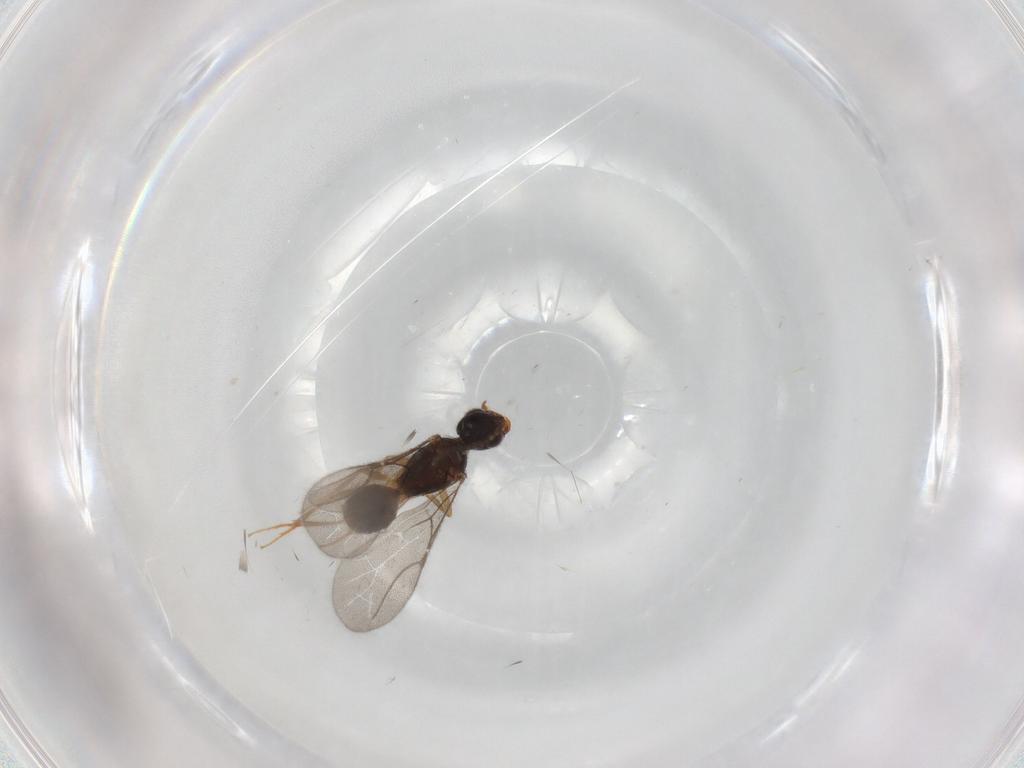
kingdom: Animalia
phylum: Arthropoda
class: Insecta
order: Hymenoptera
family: Bethylidae
